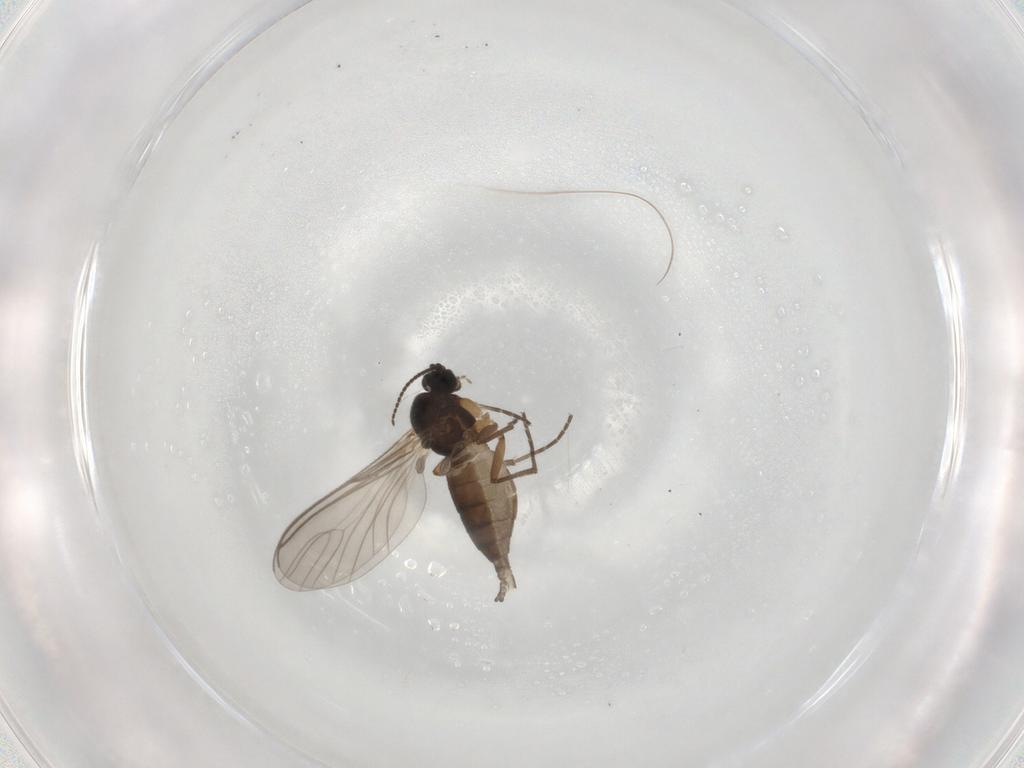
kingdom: Animalia
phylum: Arthropoda
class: Insecta
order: Diptera
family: Sciaridae
